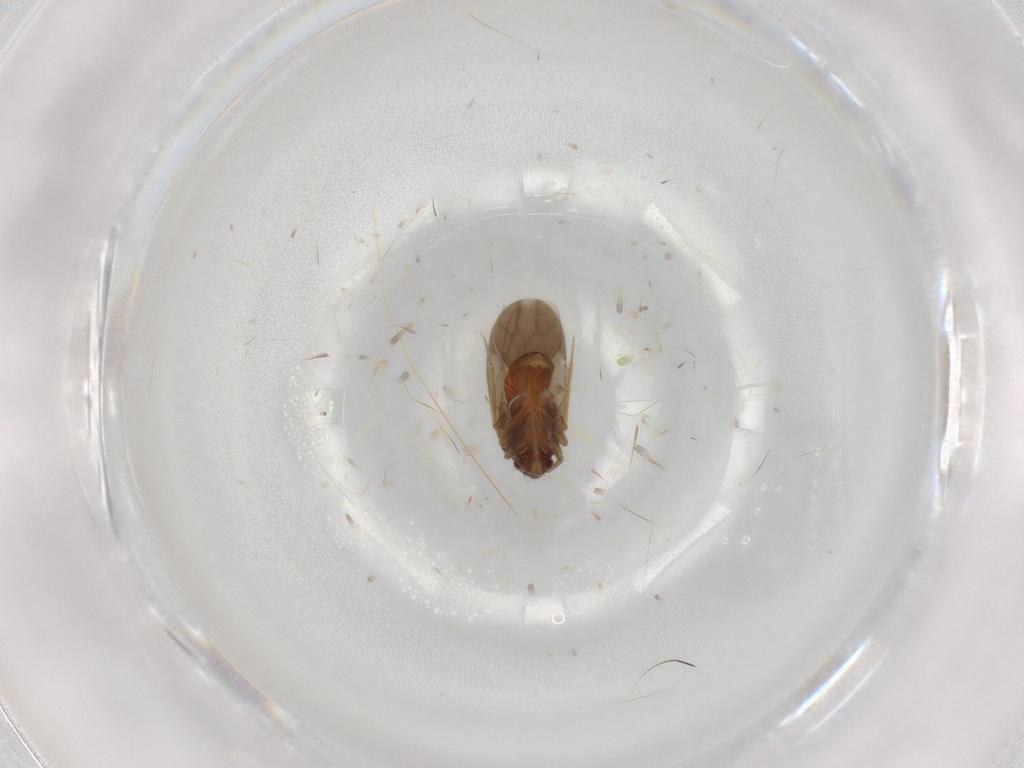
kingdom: Animalia
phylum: Arthropoda
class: Insecta
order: Hemiptera
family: Ceratocombidae
